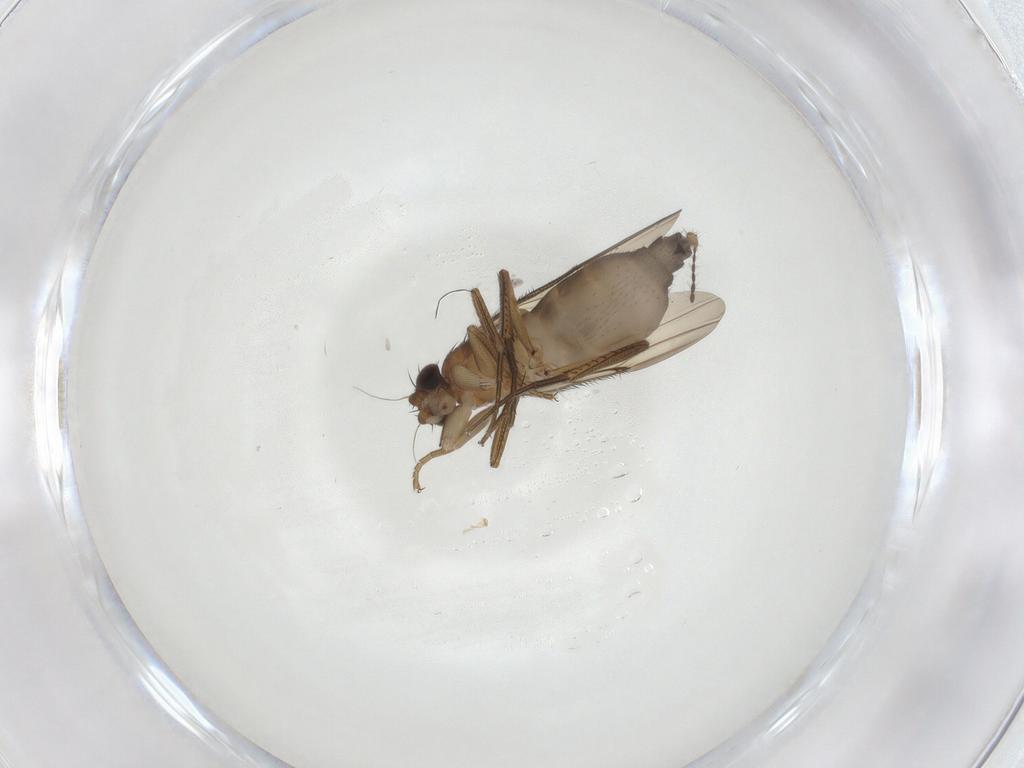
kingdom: Animalia
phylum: Arthropoda
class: Insecta
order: Diptera
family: Phoridae
